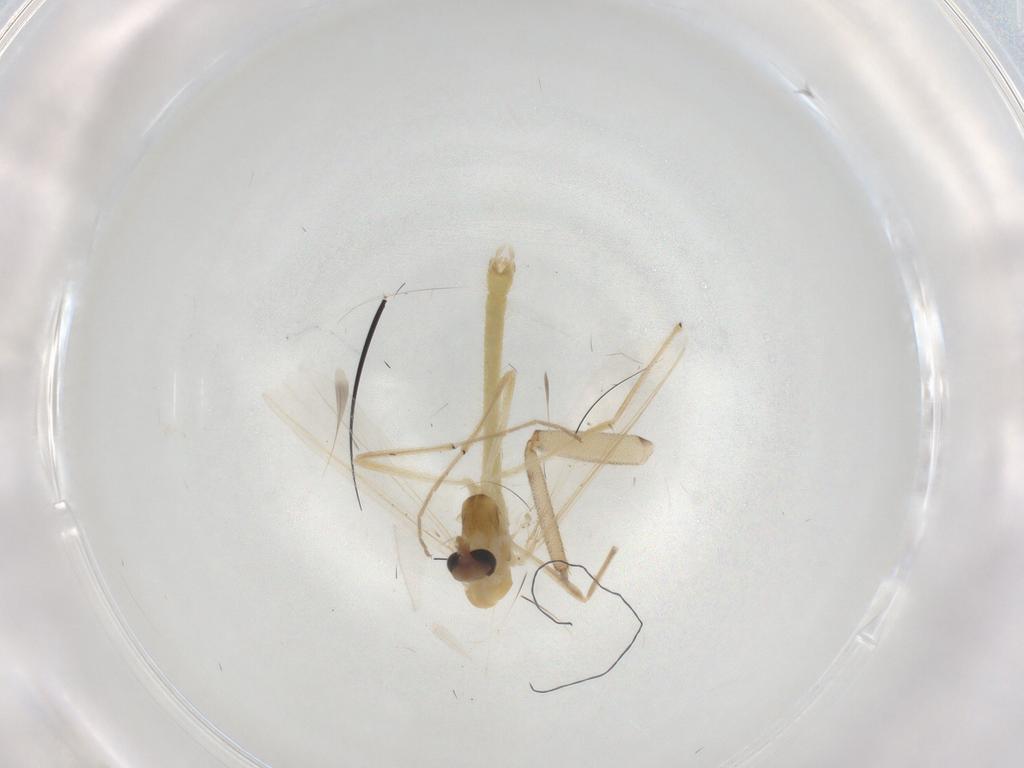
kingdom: Animalia
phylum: Arthropoda
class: Insecta
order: Diptera
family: Chironomidae
